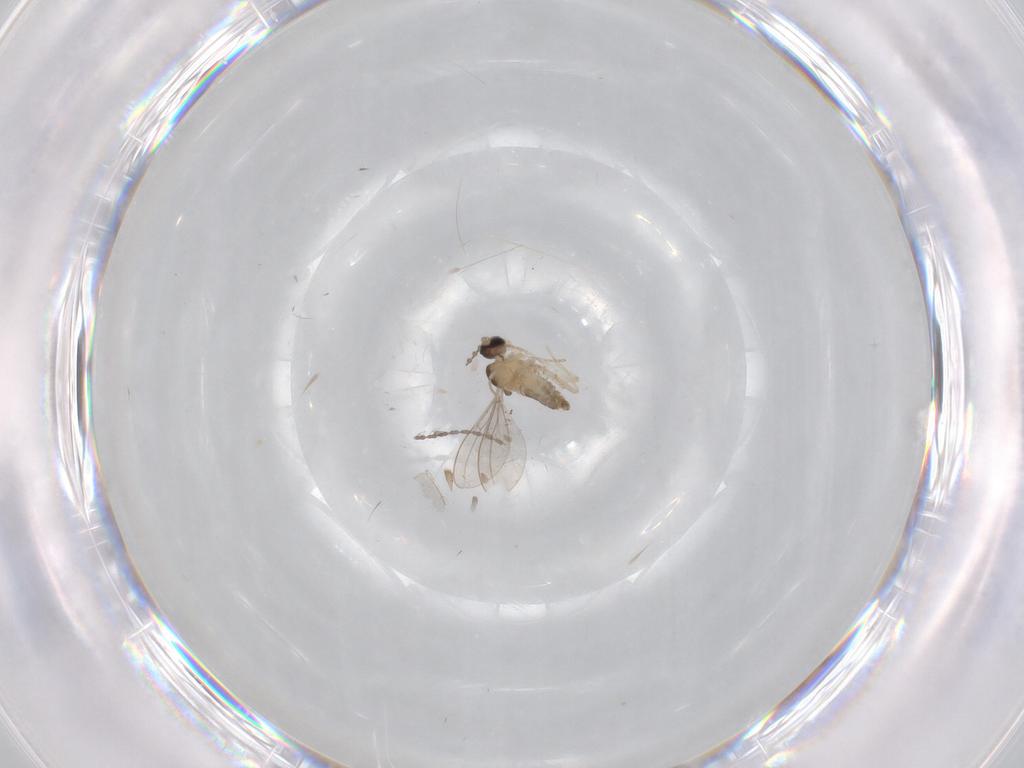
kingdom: Animalia
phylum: Arthropoda
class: Insecta
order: Diptera
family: Cecidomyiidae
